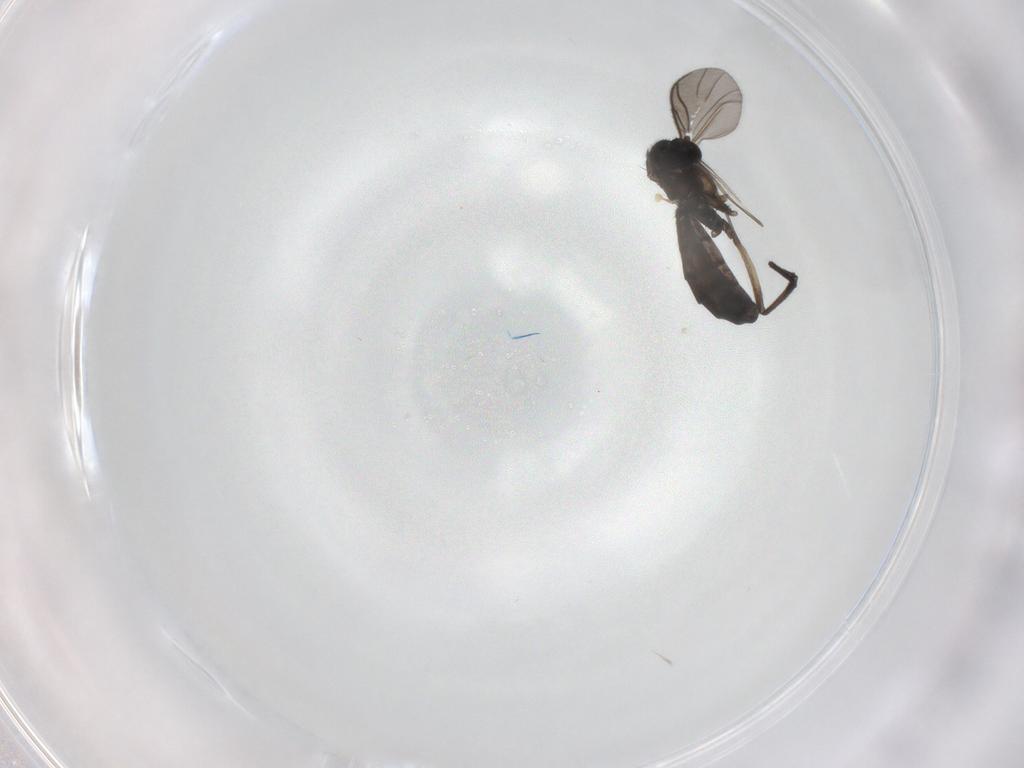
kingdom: Animalia
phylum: Arthropoda
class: Insecta
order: Diptera
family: Keroplatidae
